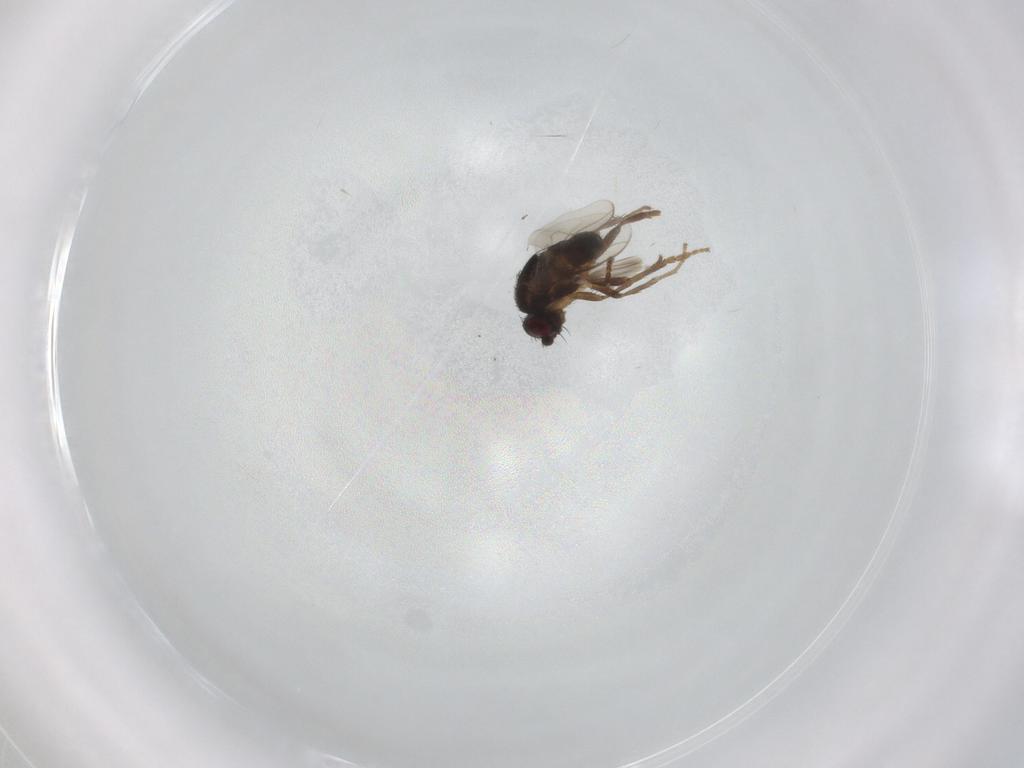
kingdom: Animalia
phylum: Arthropoda
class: Insecta
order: Diptera
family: Sphaeroceridae
